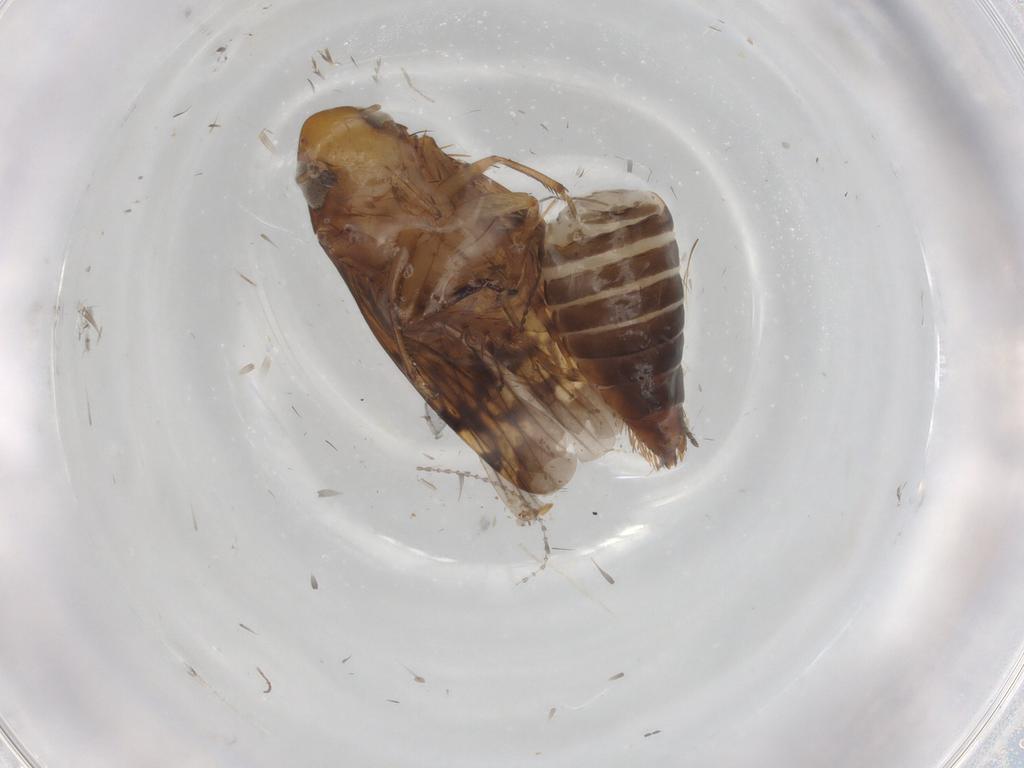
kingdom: Animalia
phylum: Arthropoda
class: Insecta
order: Hemiptera
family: Cicadellidae
